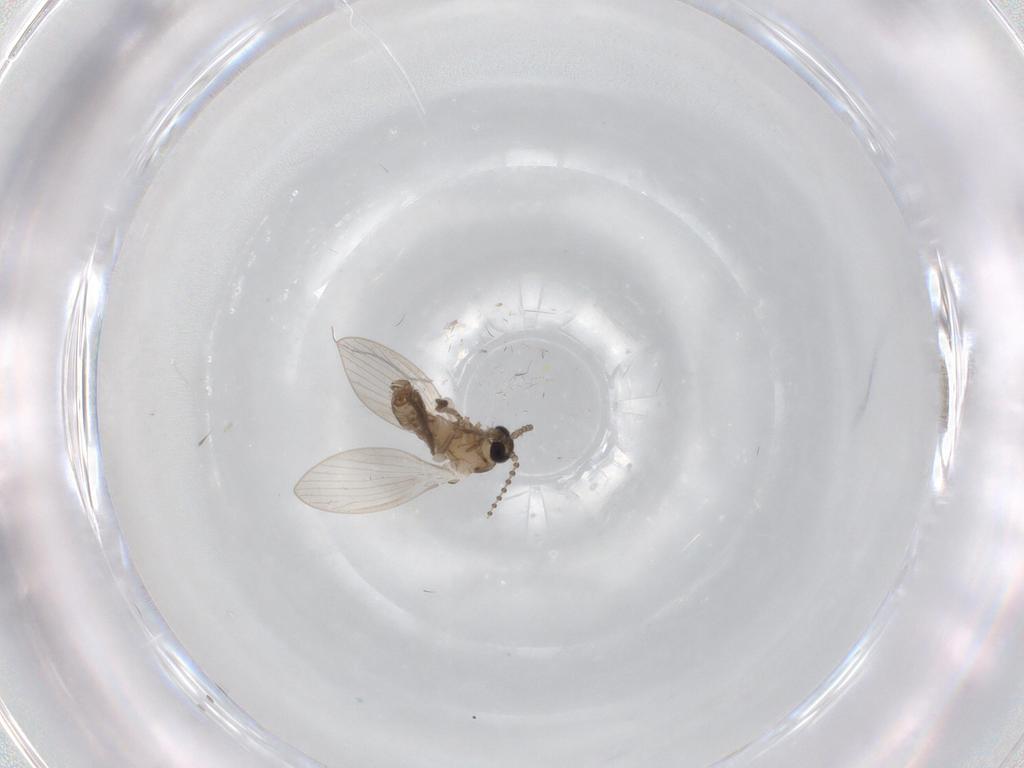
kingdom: Animalia
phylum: Arthropoda
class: Insecta
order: Diptera
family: Psychodidae
